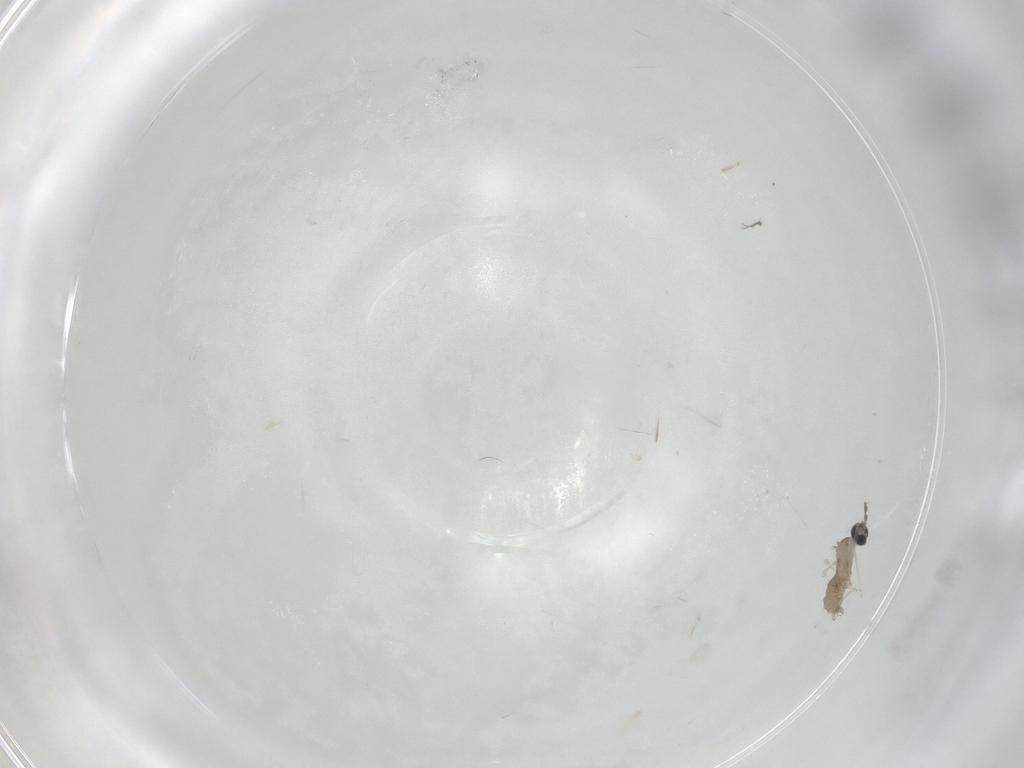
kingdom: Animalia
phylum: Arthropoda
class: Insecta
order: Diptera
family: Cecidomyiidae
